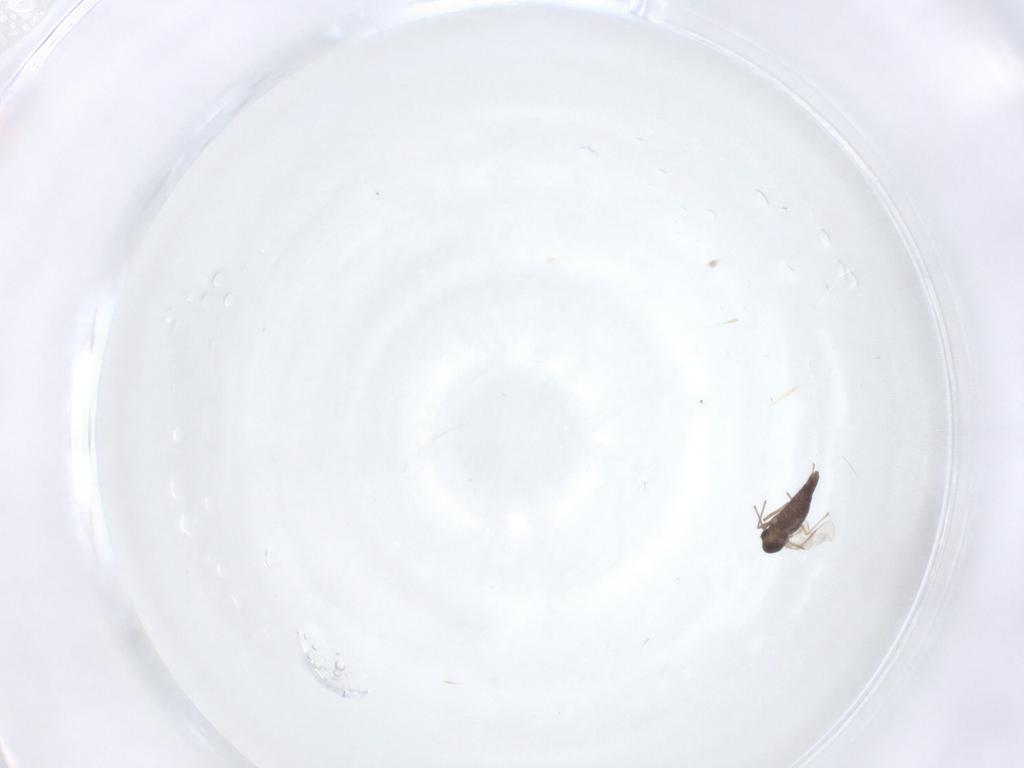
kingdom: Animalia
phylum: Arthropoda
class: Insecta
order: Diptera
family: Chironomidae
